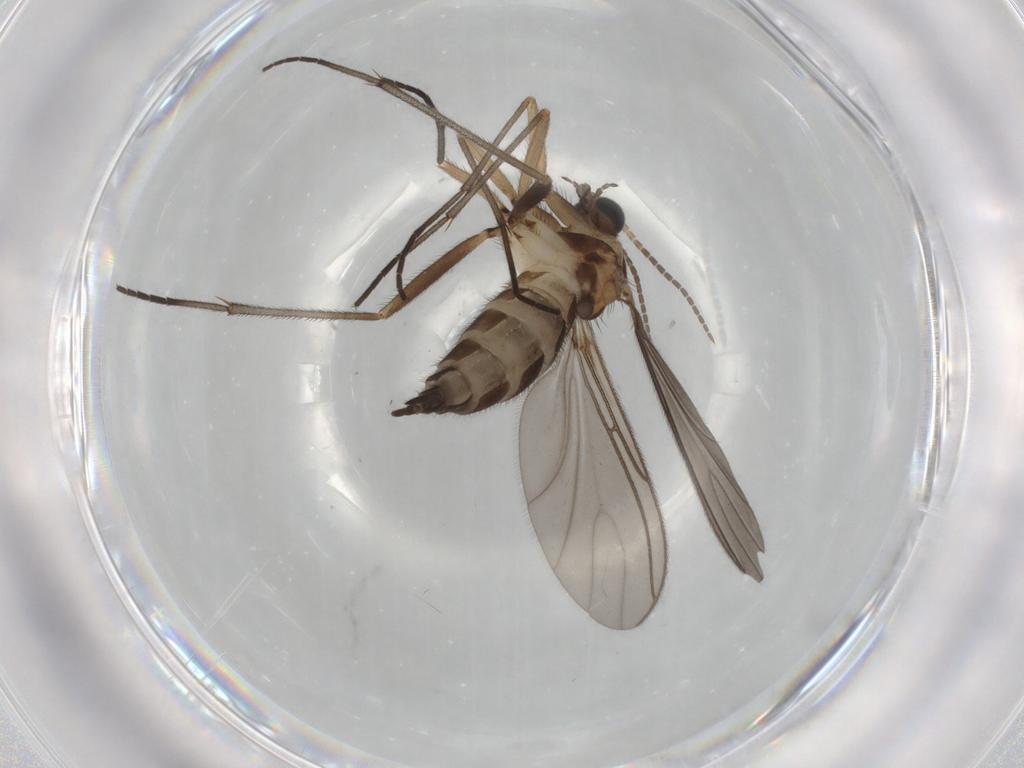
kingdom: Animalia
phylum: Arthropoda
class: Insecta
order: Diptera
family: Sciaridae
